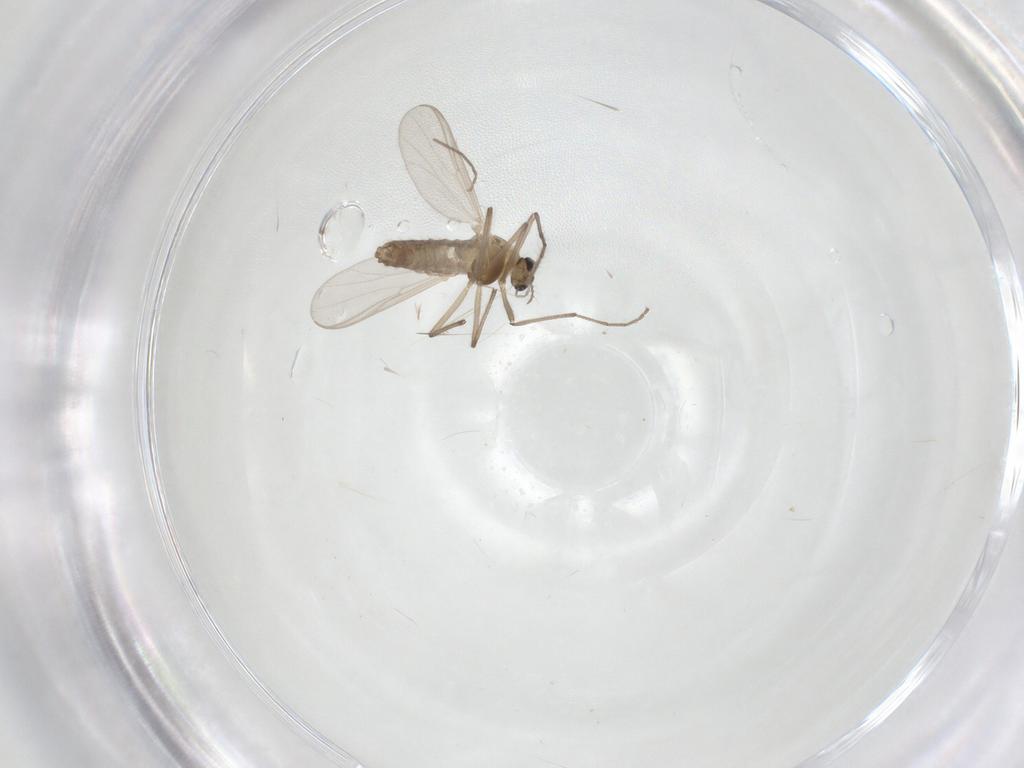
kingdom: Animalia
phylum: Arthropoda
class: Insecta
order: Diptera
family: Chironomidae
